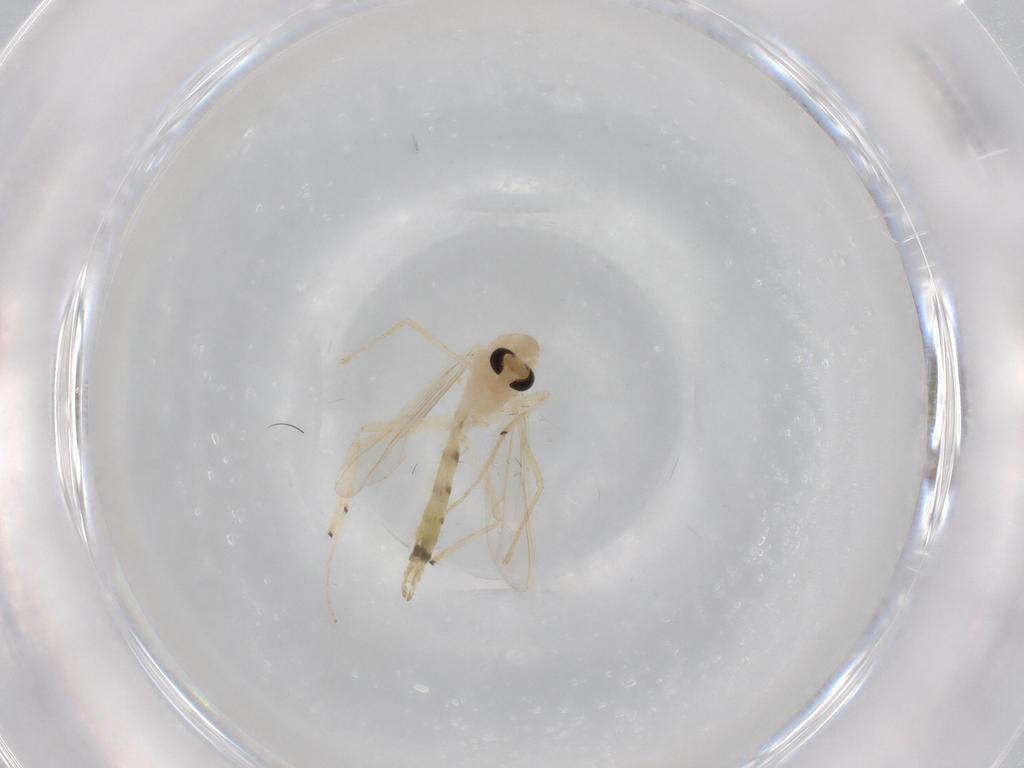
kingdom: Animalia
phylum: Arthropoda
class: Insecta
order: Diptera
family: Chironomidae
